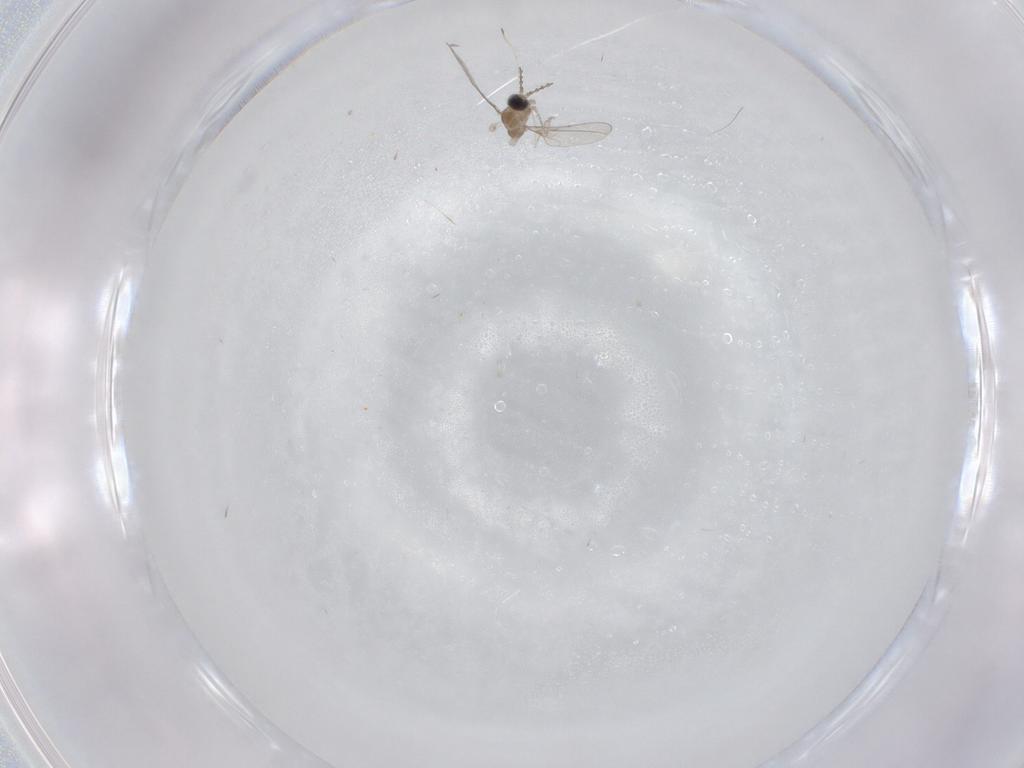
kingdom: Animalia
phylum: Arthropoda
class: Insecta
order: Diptera
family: Cecidomyiidae
